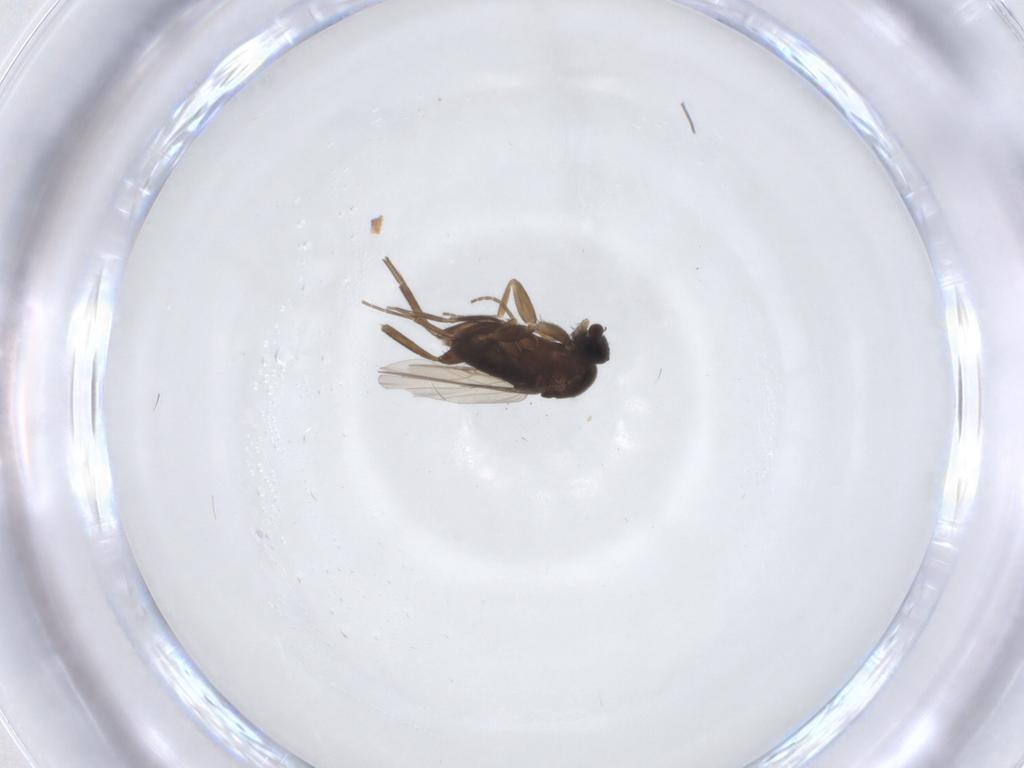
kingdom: Animalia
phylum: Arthropoda
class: Insecta
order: Diptera
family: Phoridae
